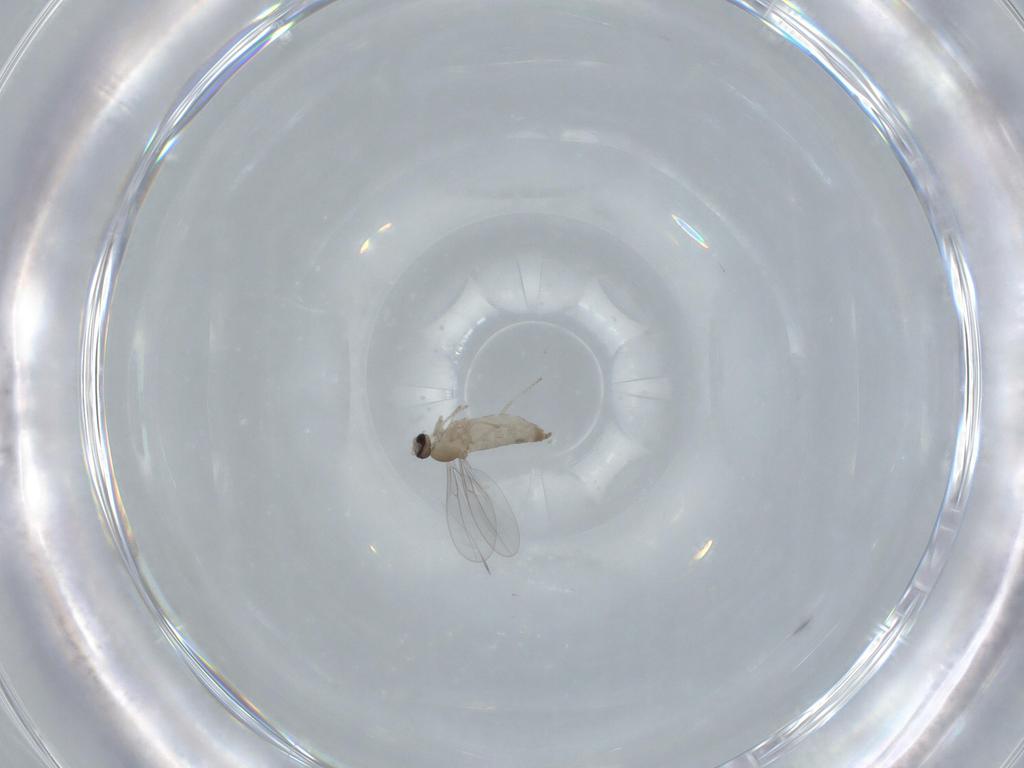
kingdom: Animalia
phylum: Arthropoda
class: Insecta
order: Diptera
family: Phoridae
